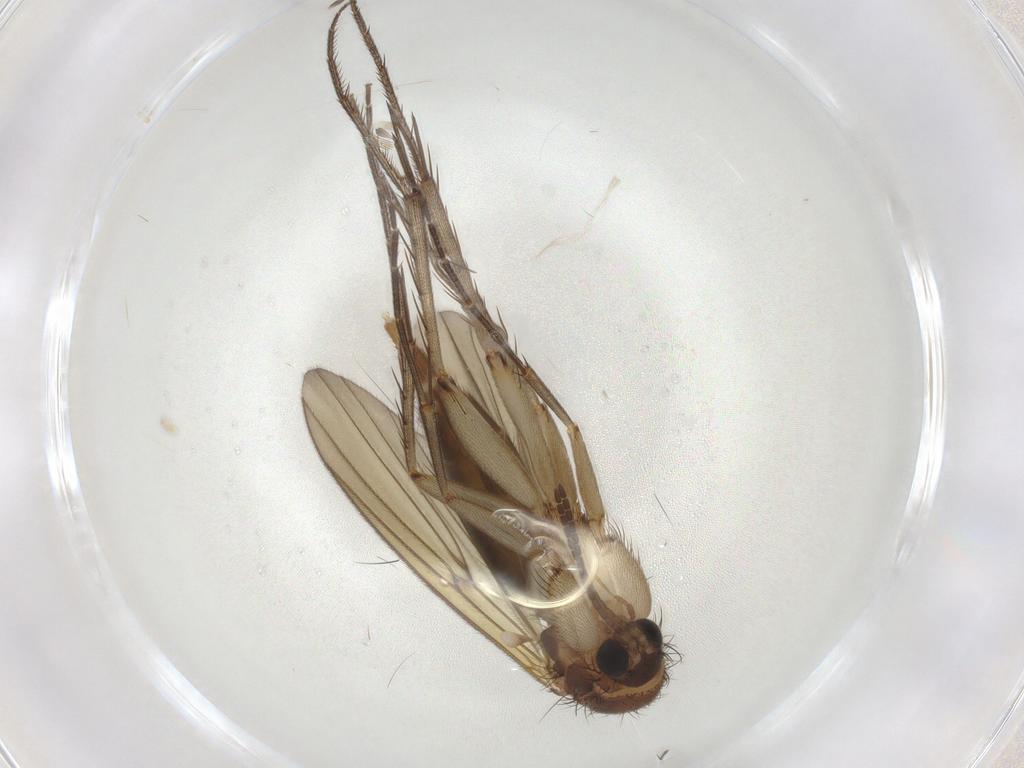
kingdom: Animalia
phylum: Arthropoda
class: Insecta
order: Diptera
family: Mycetophilidae
